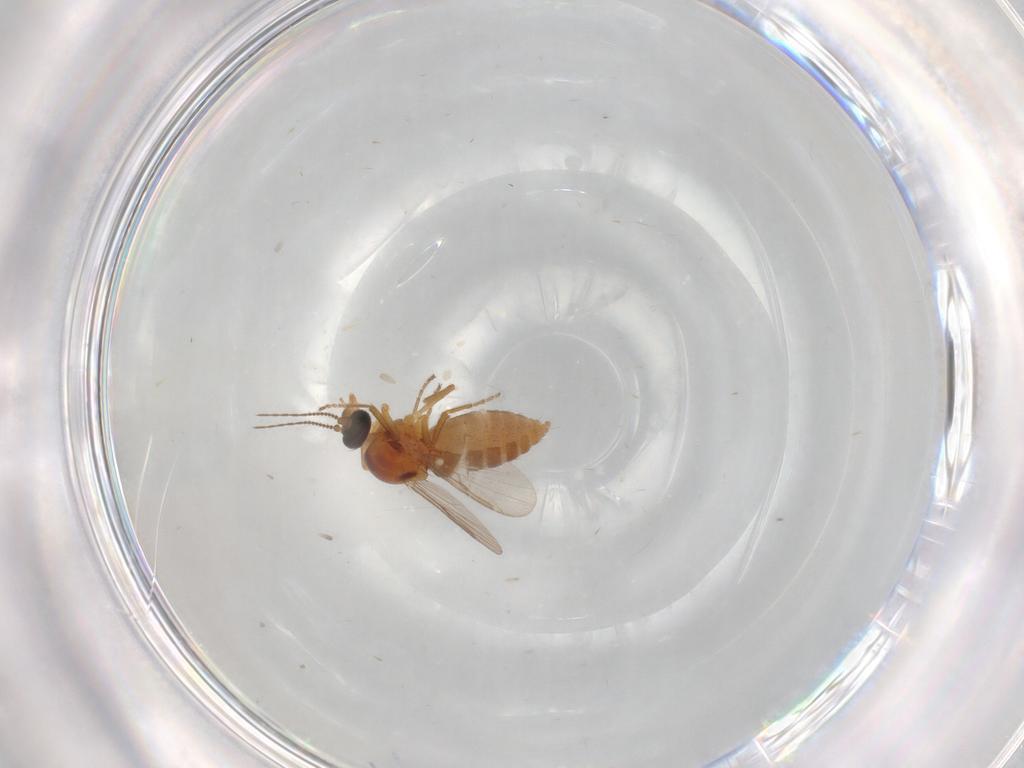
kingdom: Animalia
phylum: Arthropoda
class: Insecta
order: Diptera
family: Ceratopogonidae
